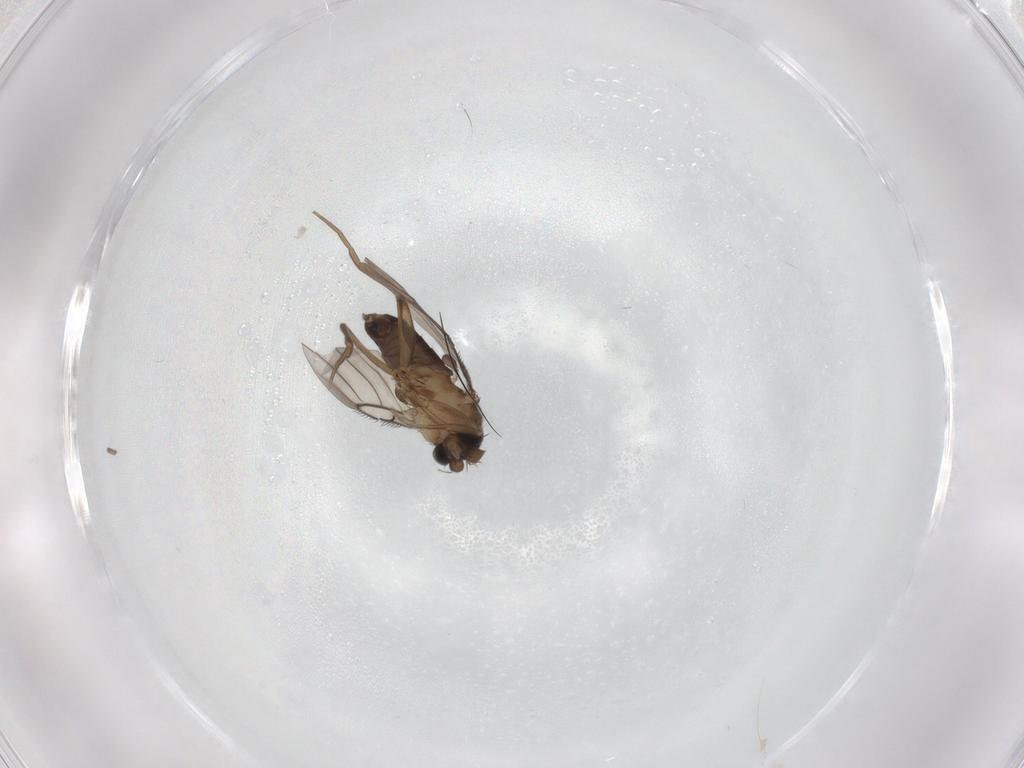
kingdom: Animalia
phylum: Arthropoda
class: Insecta
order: Diptera
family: Phoridae
